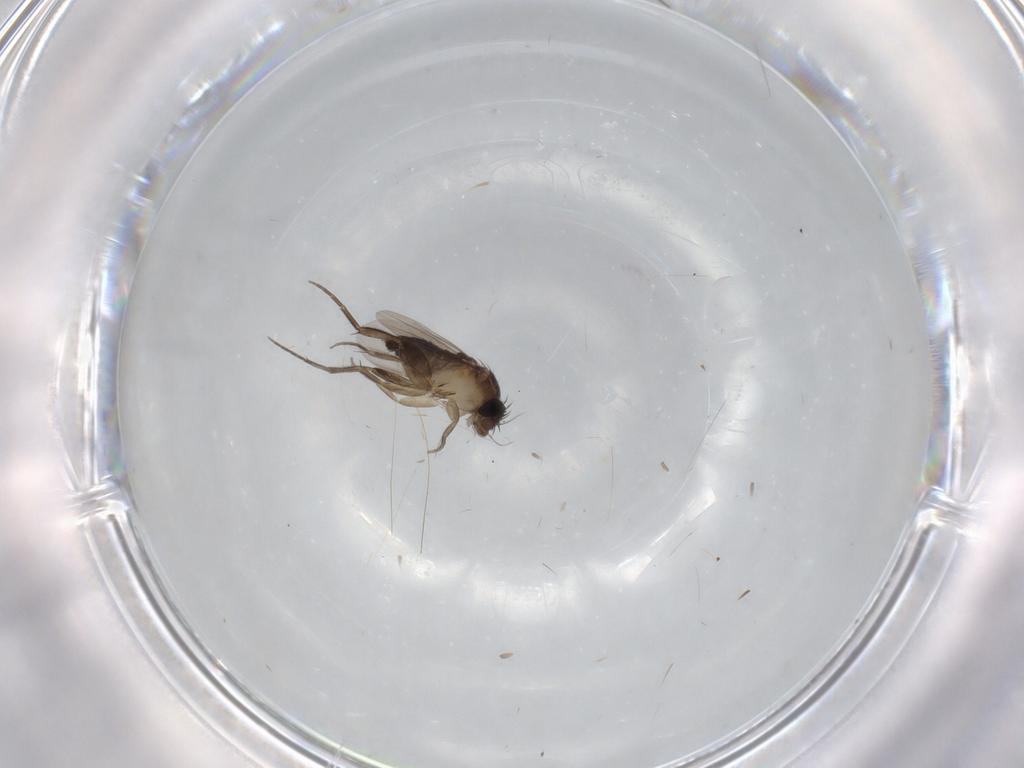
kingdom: Animalia
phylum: Arthropoda
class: Insecta
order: Diptera
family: Phoridae
